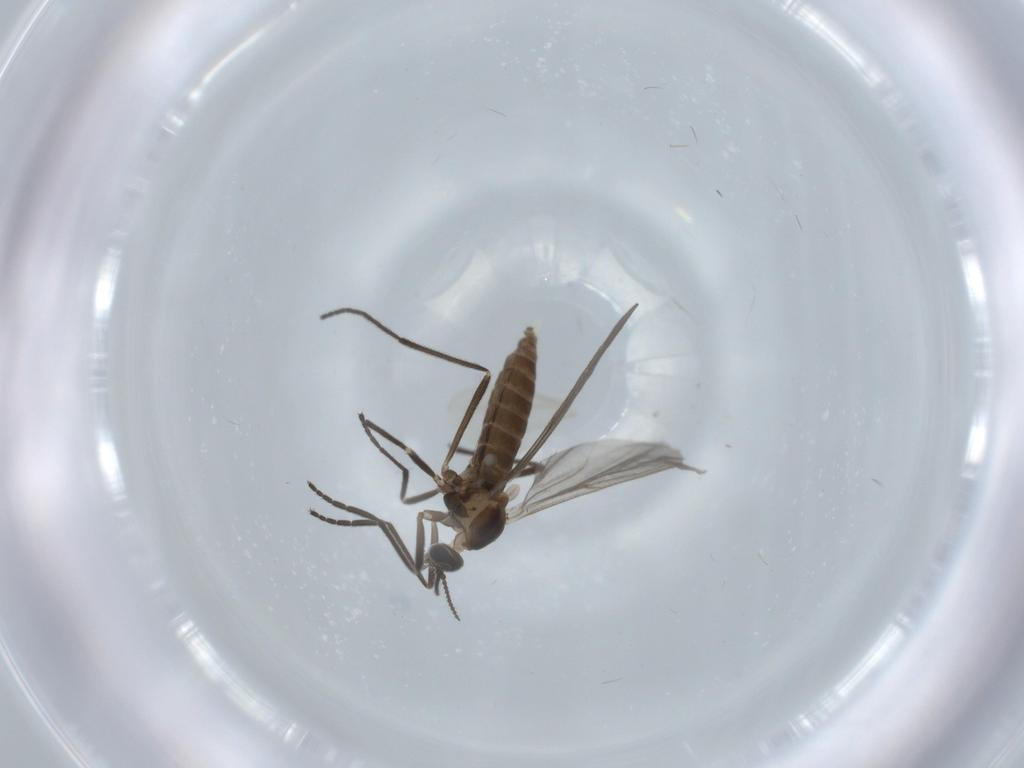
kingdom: Animalia
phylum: Arthropoda
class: Insecta
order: Diptera
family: Cecidomyiidae
